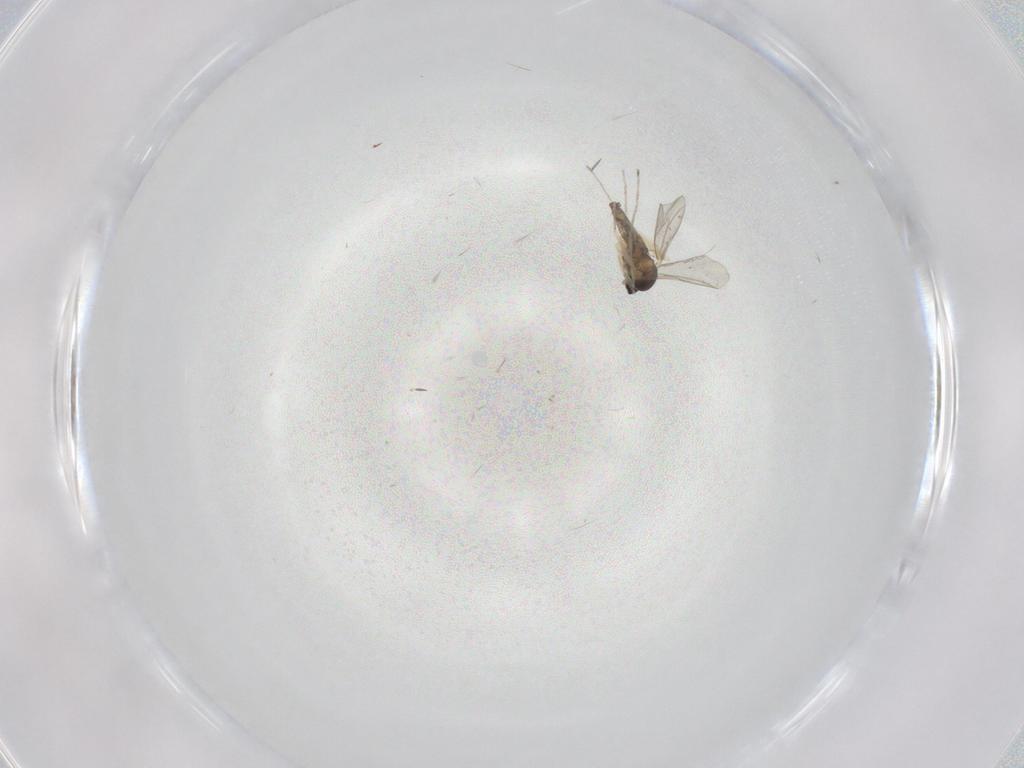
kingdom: Animalia
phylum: Arthropoda
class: Insecta
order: Diptera
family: Chironomidae
